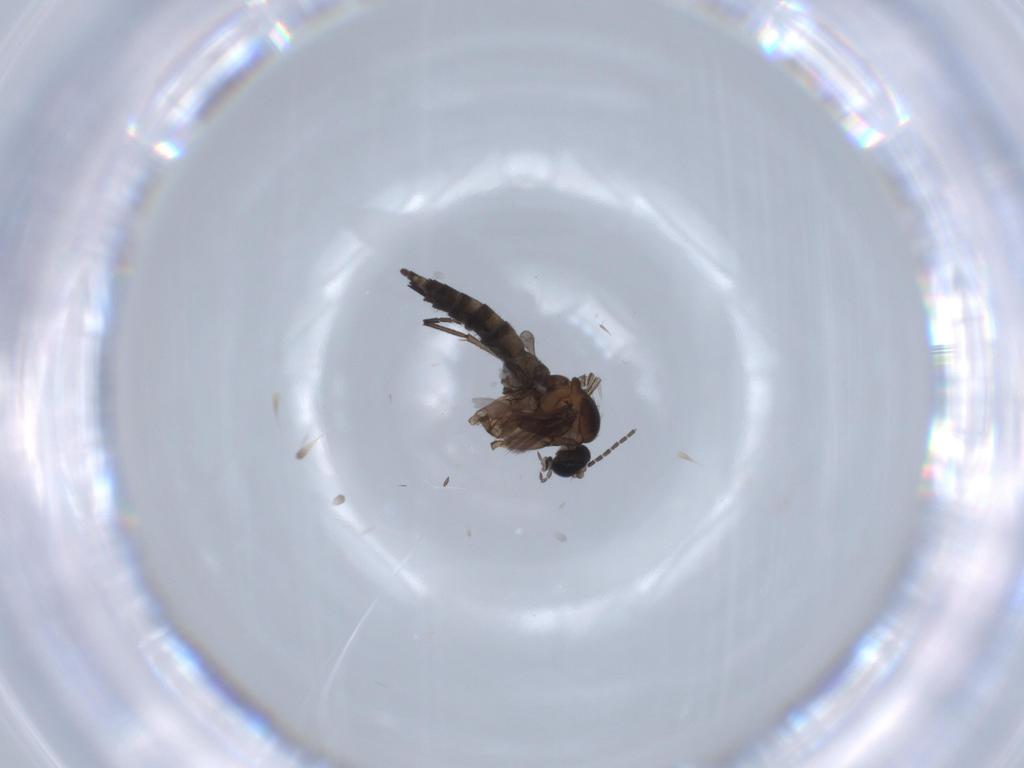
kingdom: Animalia
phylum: Arthropoda
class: Insecta
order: Diptera
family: Sciaridae
